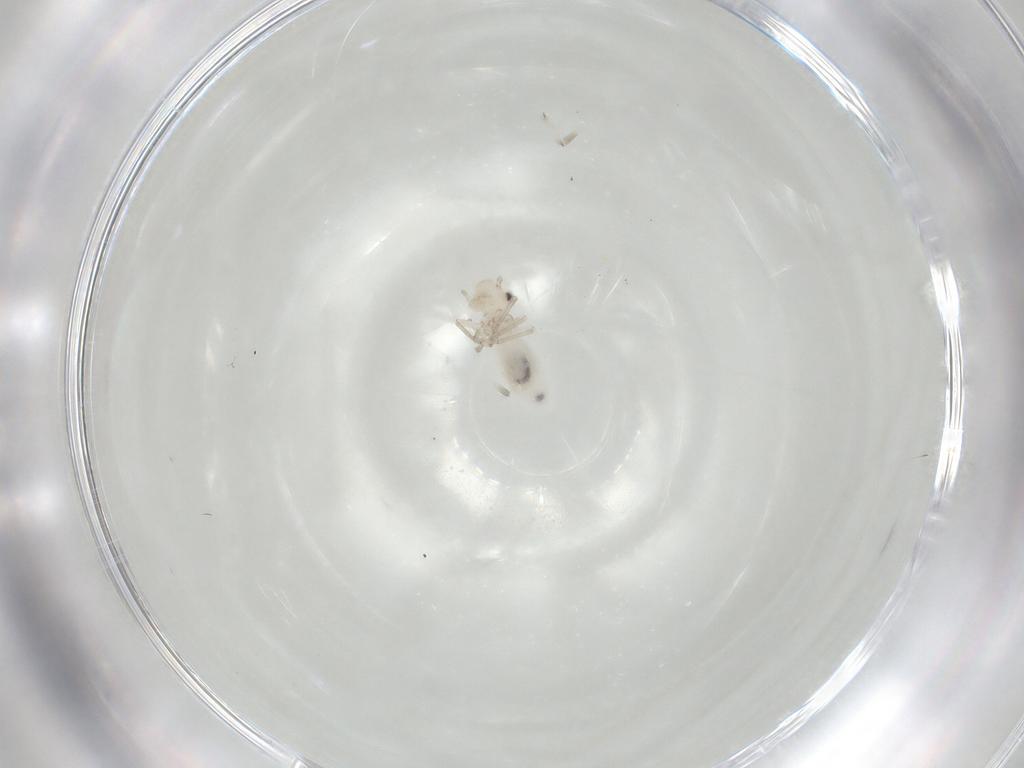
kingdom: Animalia
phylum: Arthropoda
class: Insecta
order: Psocodea
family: Caeciliusidae
